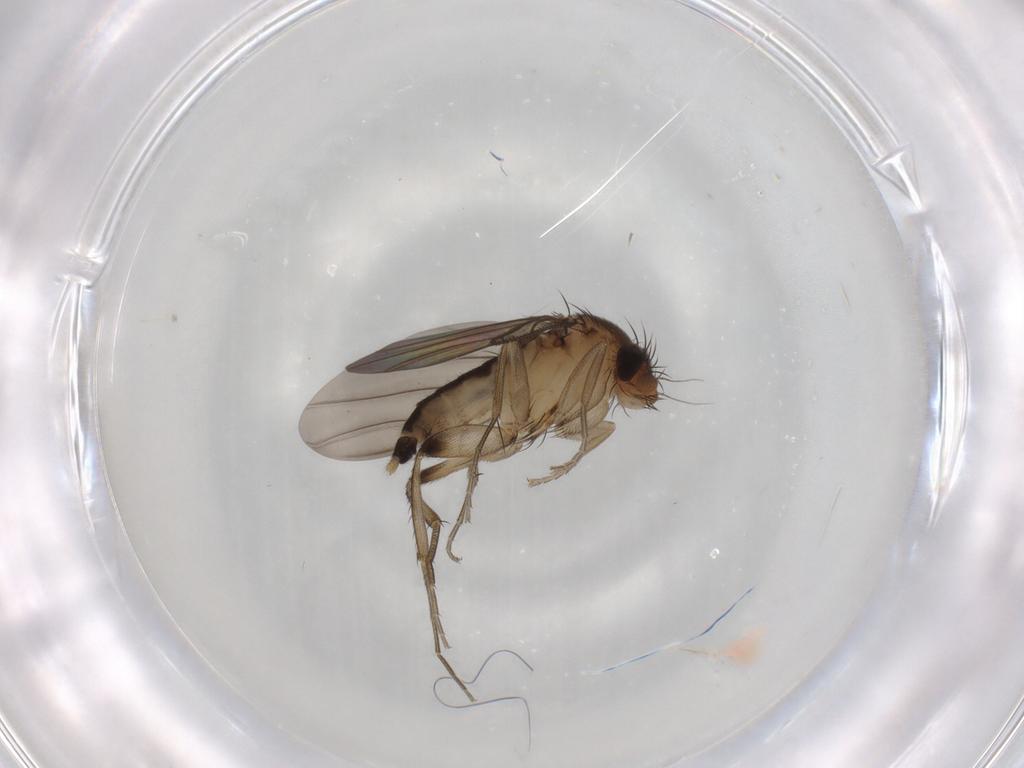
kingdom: Animalia
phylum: Arthropoda
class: Insecta
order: Diptera
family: Phoridae
